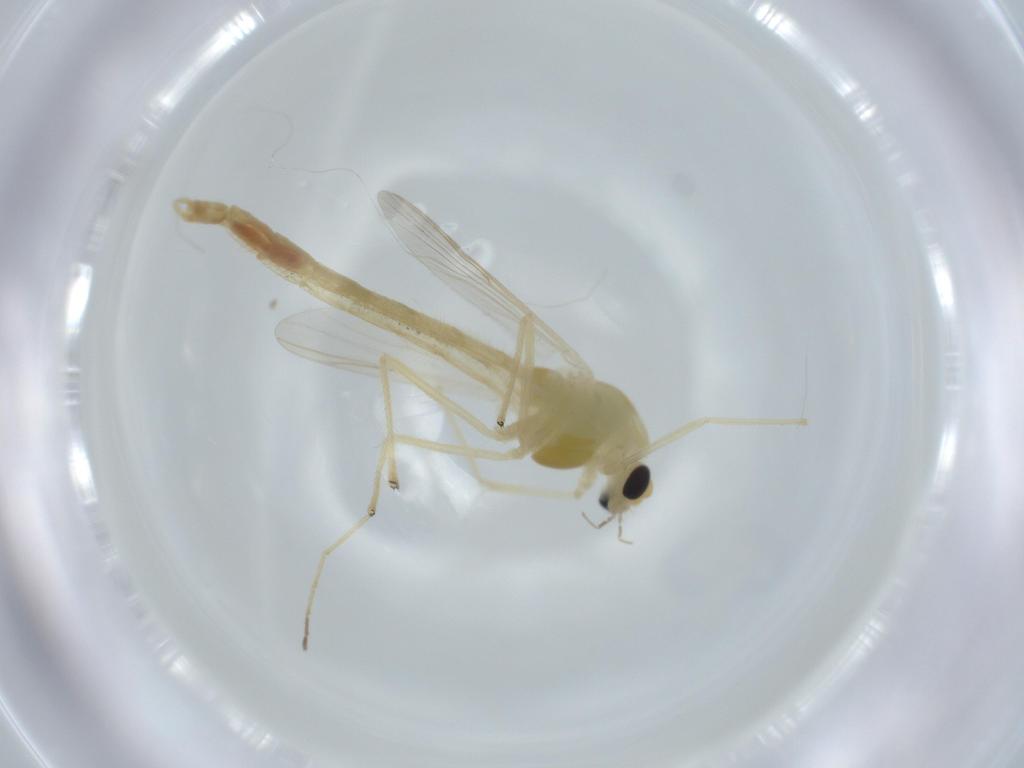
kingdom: Animalia
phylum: Arthropoda
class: Insecta
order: Diptera
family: Chironomidae
